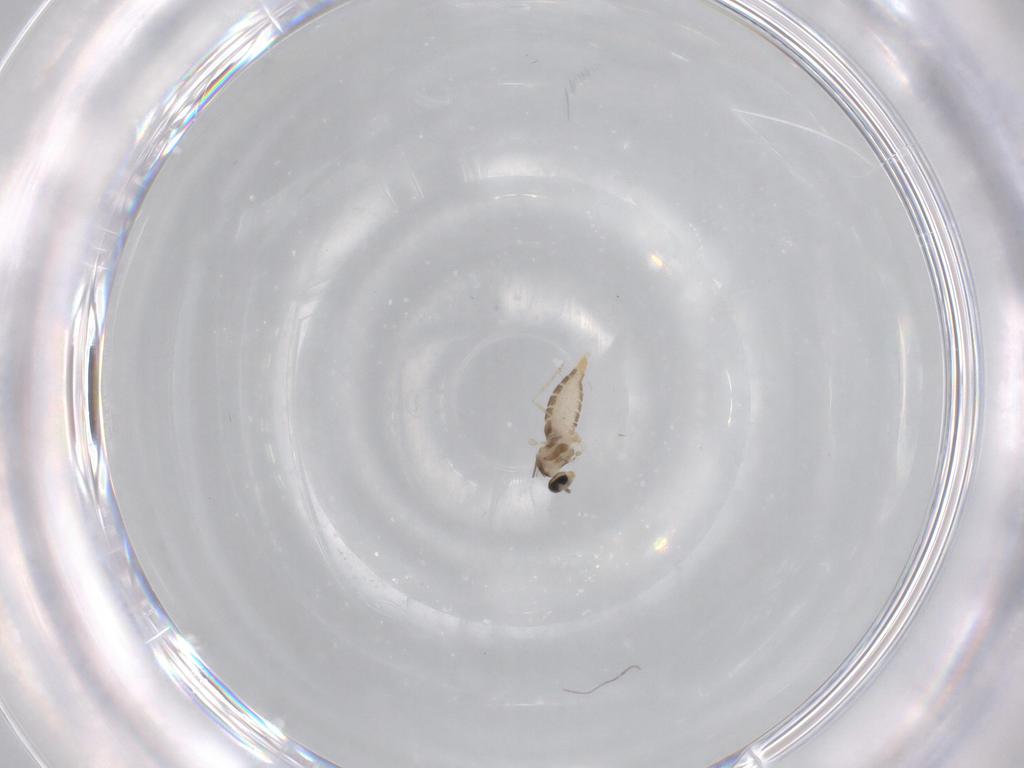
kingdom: Animalia
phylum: Arthropoda
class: Insecta
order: Diptera
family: Cecidomyiidae
